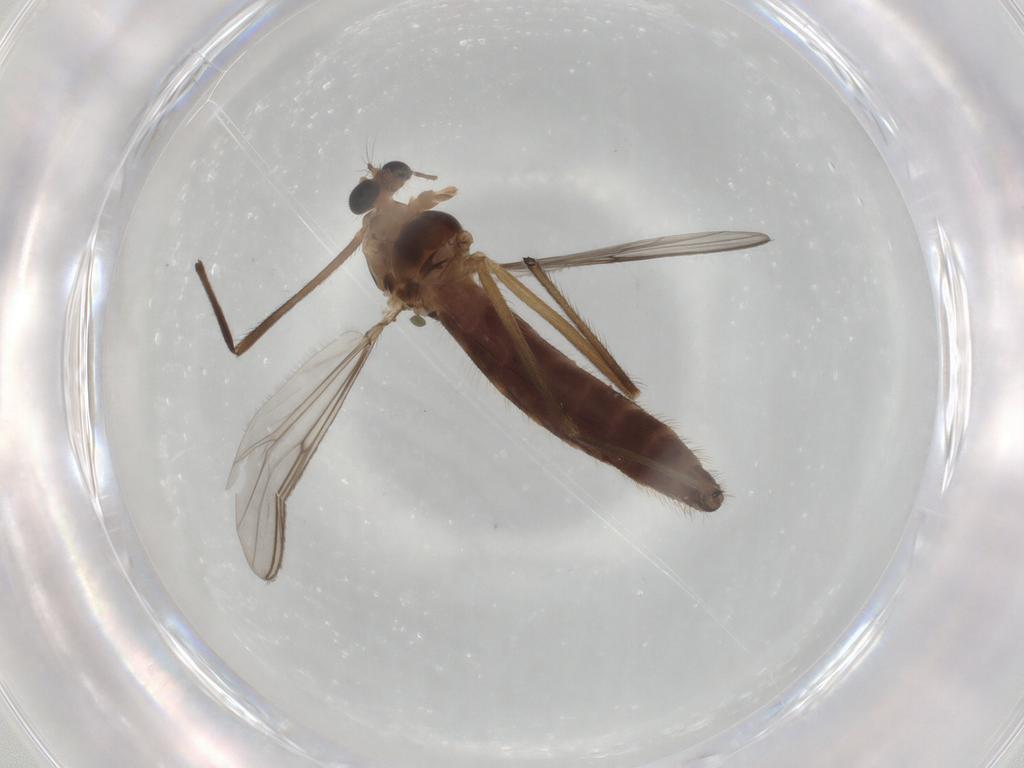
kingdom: Animalia
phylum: Arthropoda
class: Insecta
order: Diptera
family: Chironomidae
